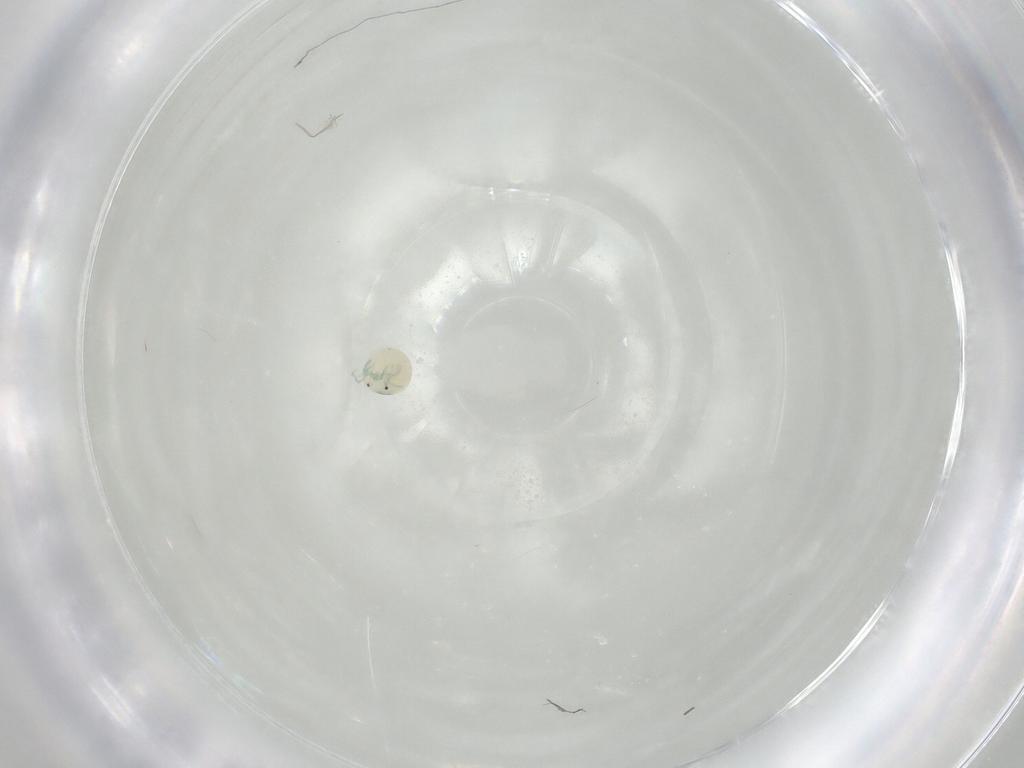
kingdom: Animalia
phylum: Arthropoda
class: Arachnida
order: Trombidiformes
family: Arrenuridae
